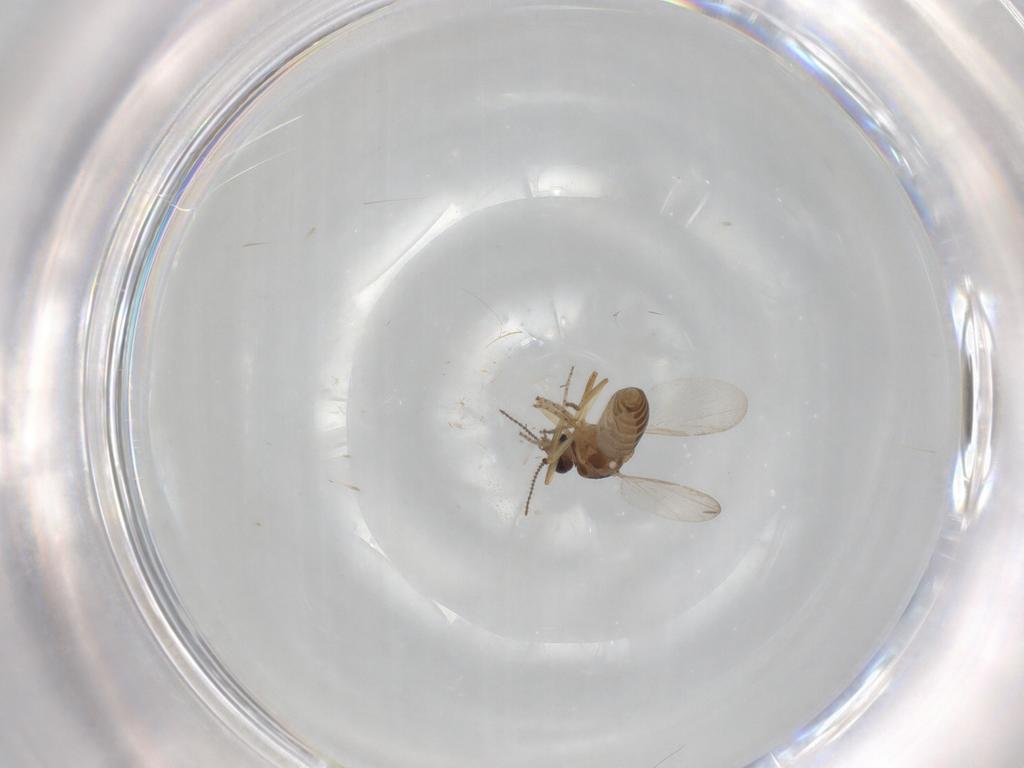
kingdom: Animalia
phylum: Arthropoda
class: Insecta
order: Diptera
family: Ceratopogonidae
